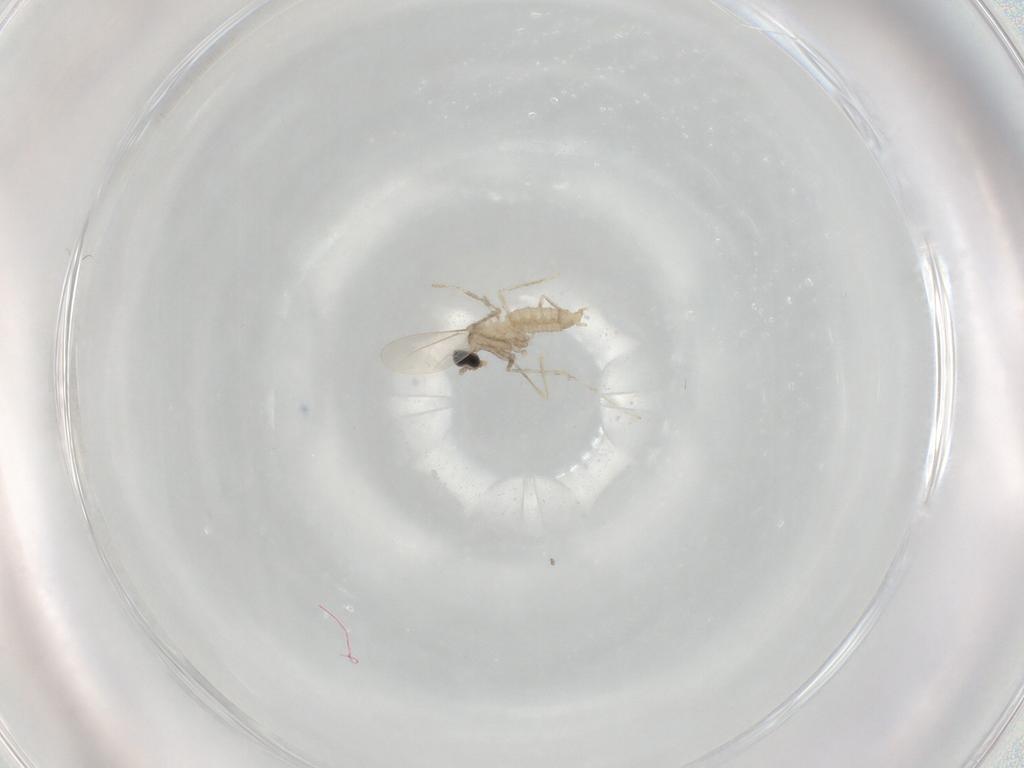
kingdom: Animalia
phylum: Arthropoda
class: Insecta
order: Diptera
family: Cecidomyiidae
